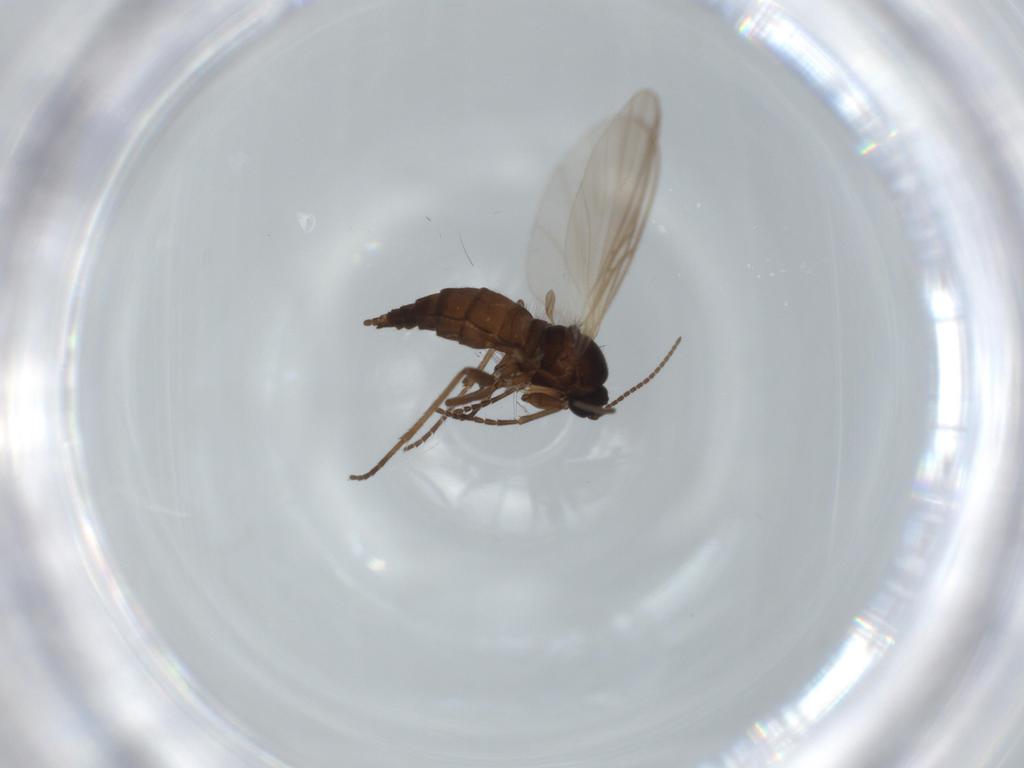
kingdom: Animalia
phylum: Arthropoda
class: Insecta
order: Diptera
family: Sciaridae
